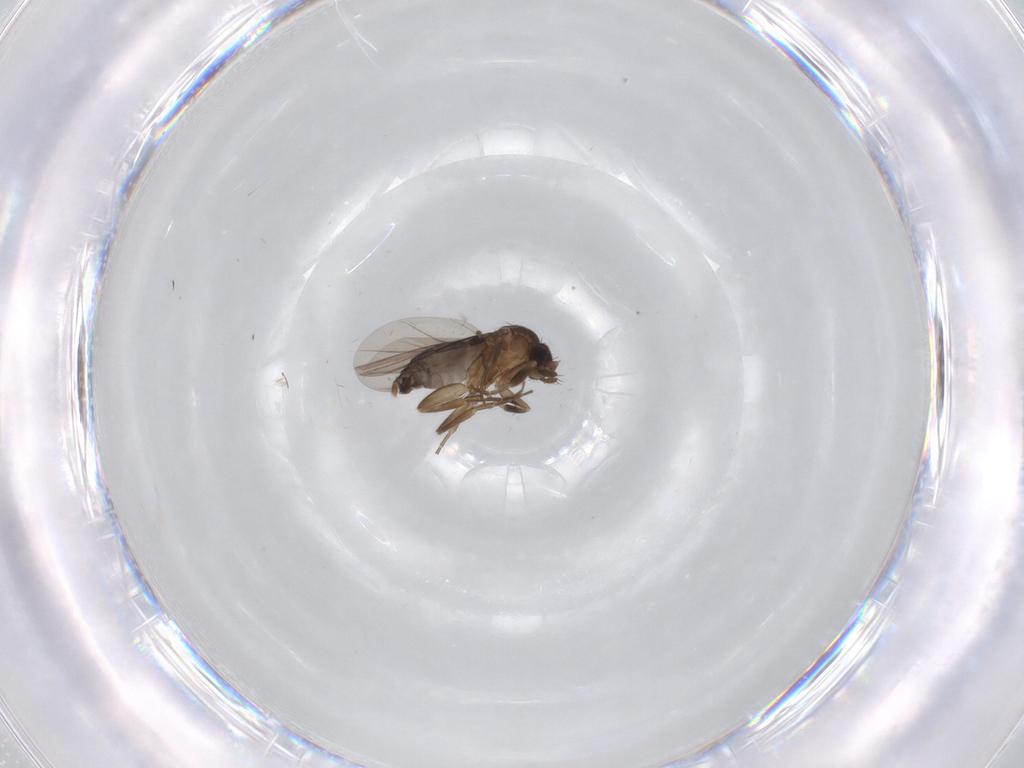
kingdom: Animalia
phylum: Arthropoda
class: Insecta
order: Diptera
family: Phoridae
